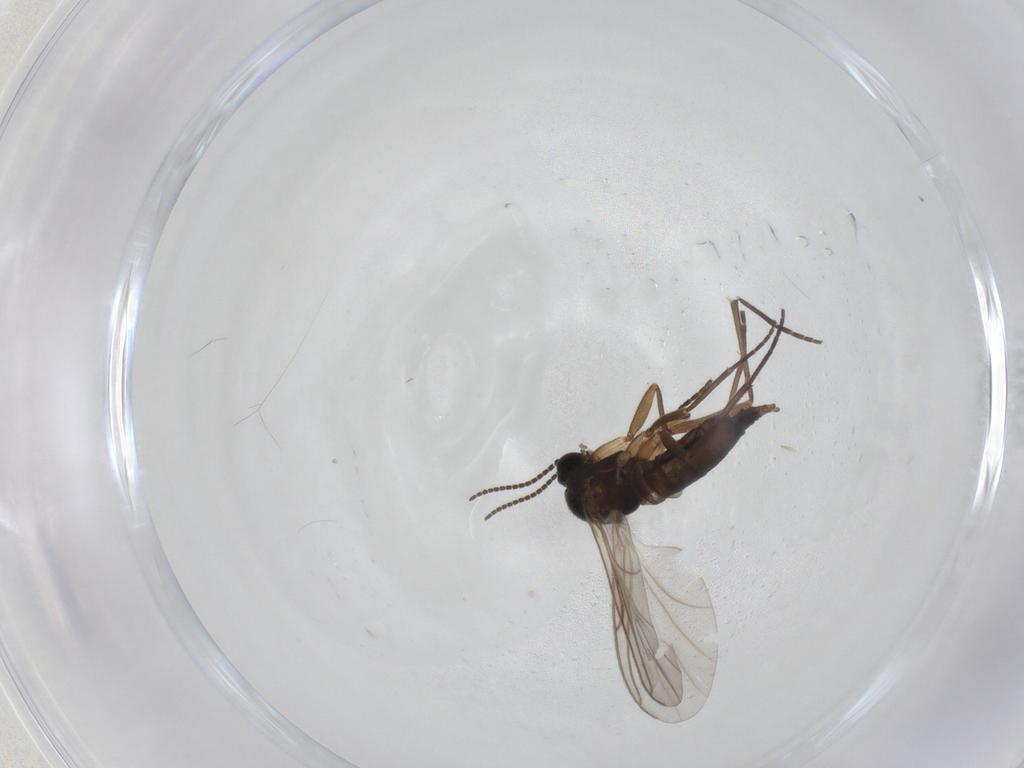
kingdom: Animalia
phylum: Arthropoda
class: Insecta
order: Diptera
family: Sciaridae
